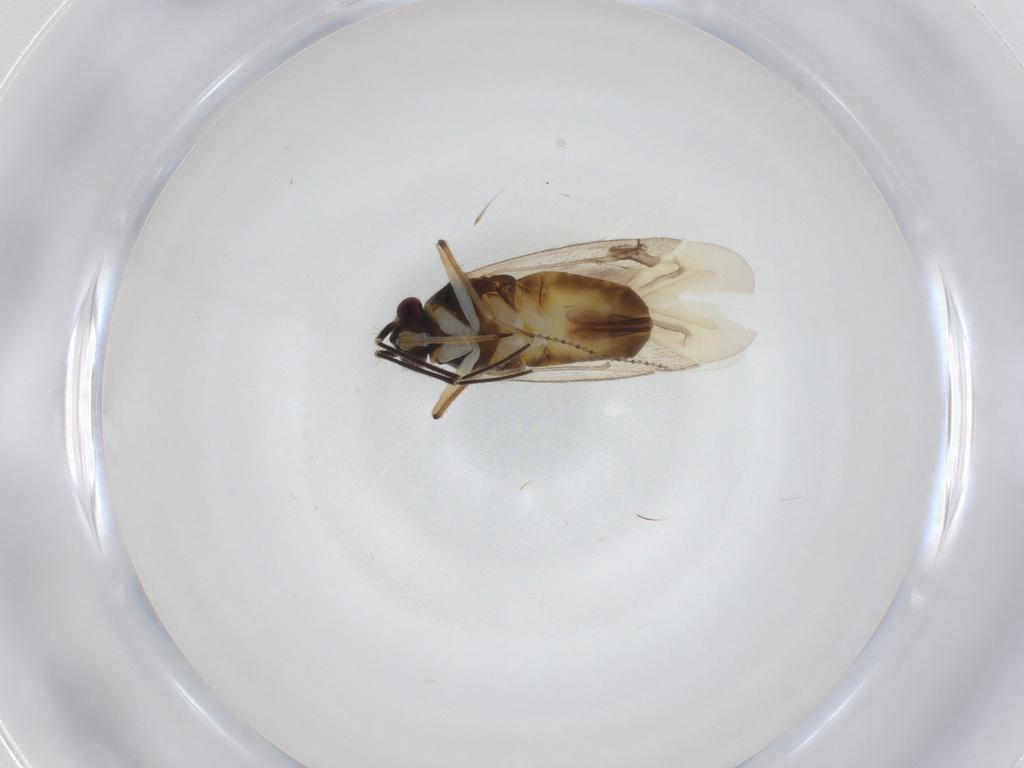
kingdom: Animalia
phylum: Arthropoda
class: Insecta
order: Hemiptera
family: Miridae
